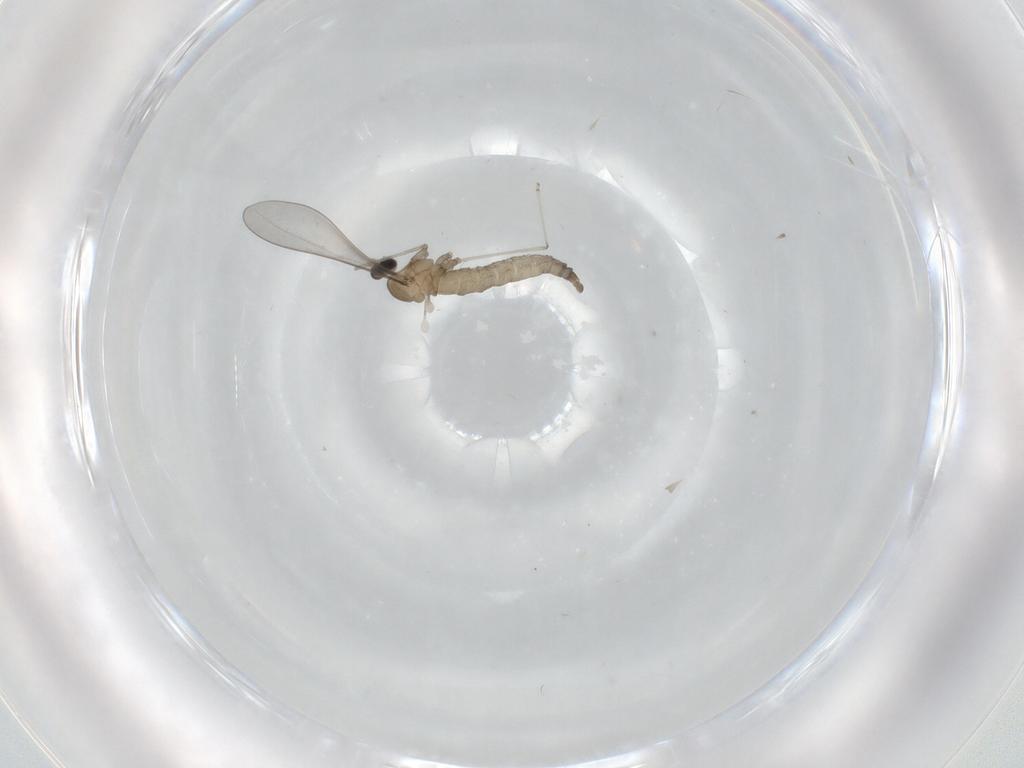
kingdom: Animalia
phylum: Arthropoda
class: Insecta
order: Diptera
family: Cecidomyiidae
